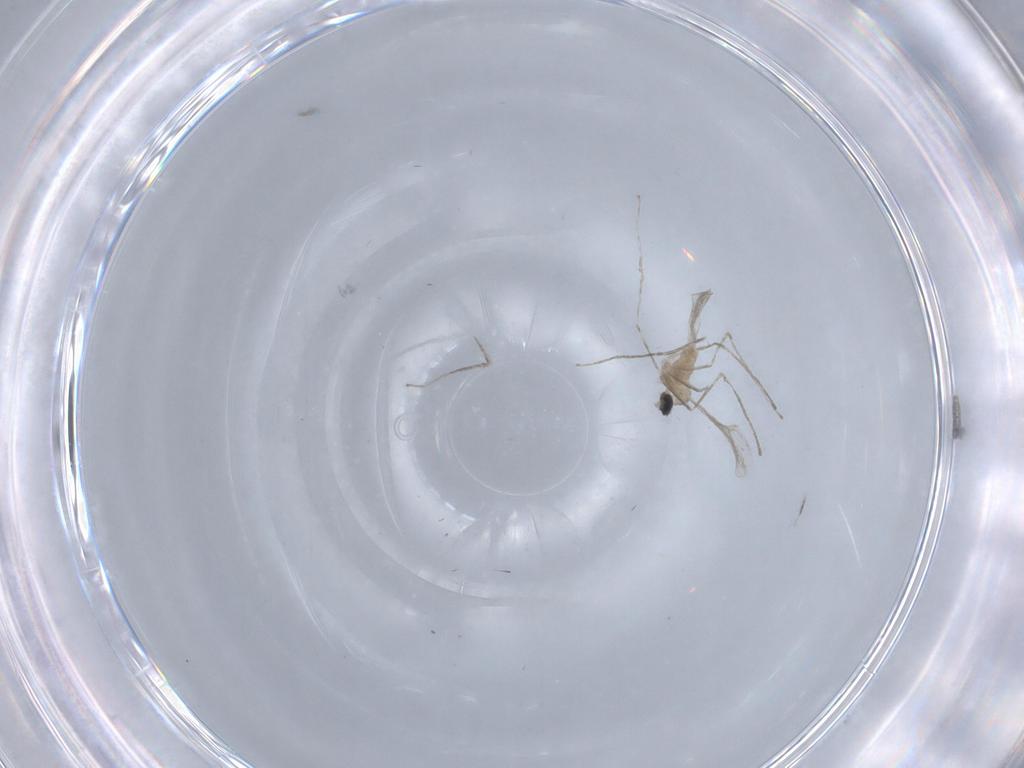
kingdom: Animalia
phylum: Arthropoda
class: Insecta
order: Diptera
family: Cecidomyiidae
